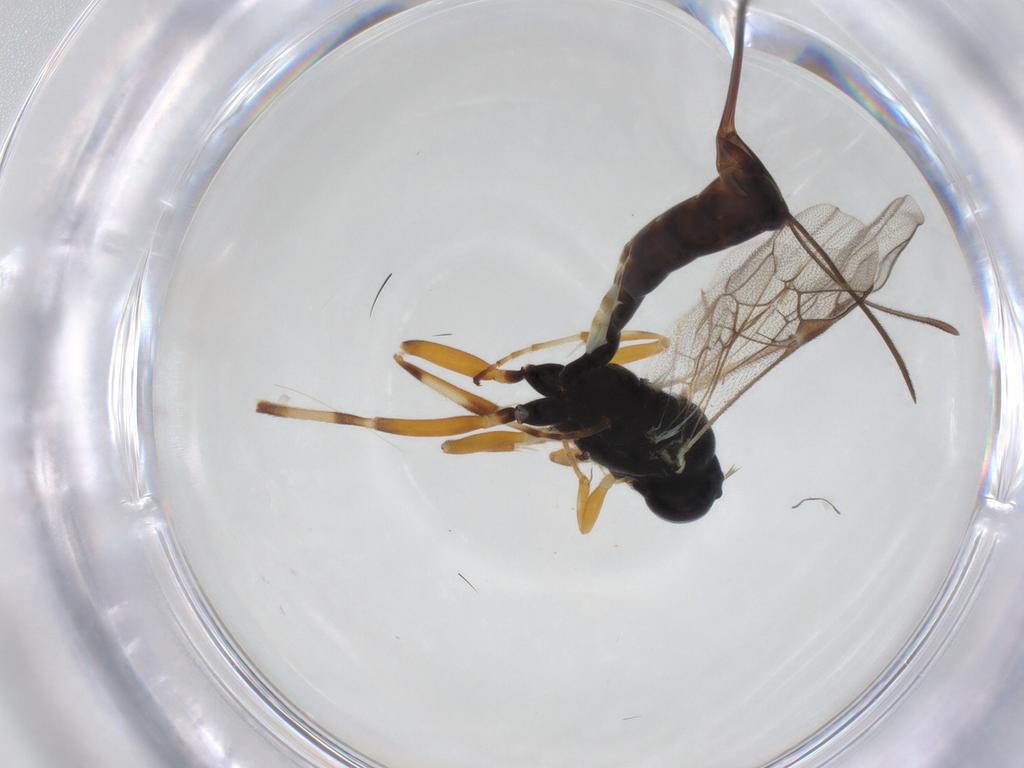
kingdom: Animalia
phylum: Arthropoda
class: Insecta
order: Hymenoptera
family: Ichneumonidae
